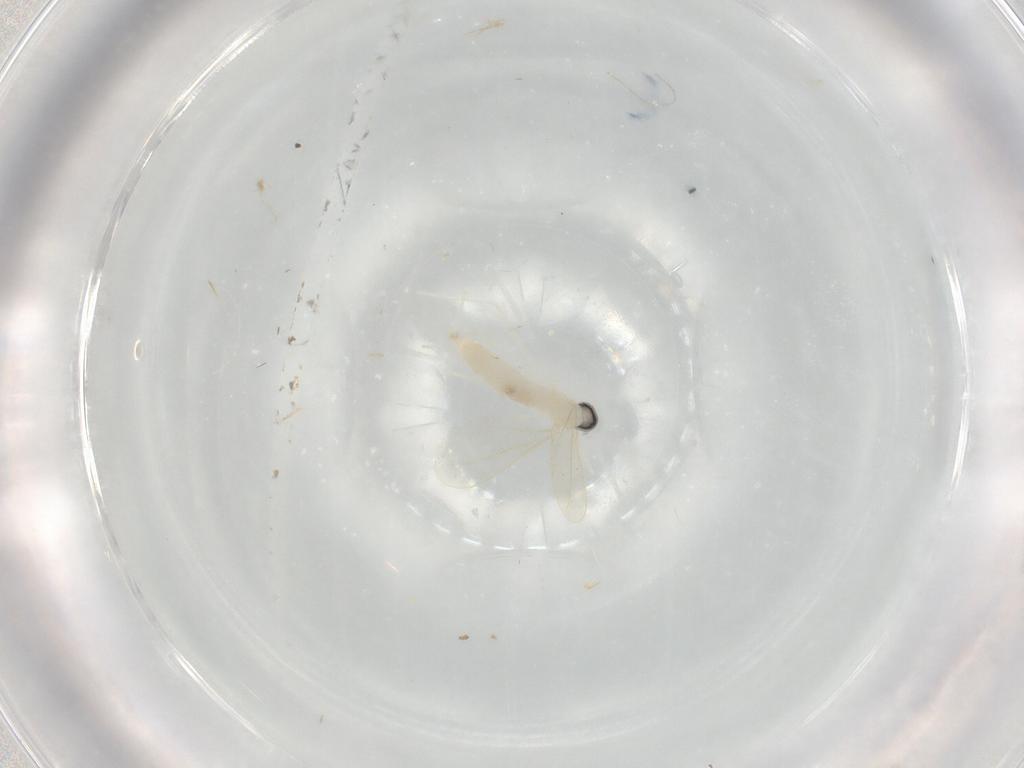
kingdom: Animalia
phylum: Arthropoda
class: Insecta
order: Diptera
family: Cecidomyiidae
